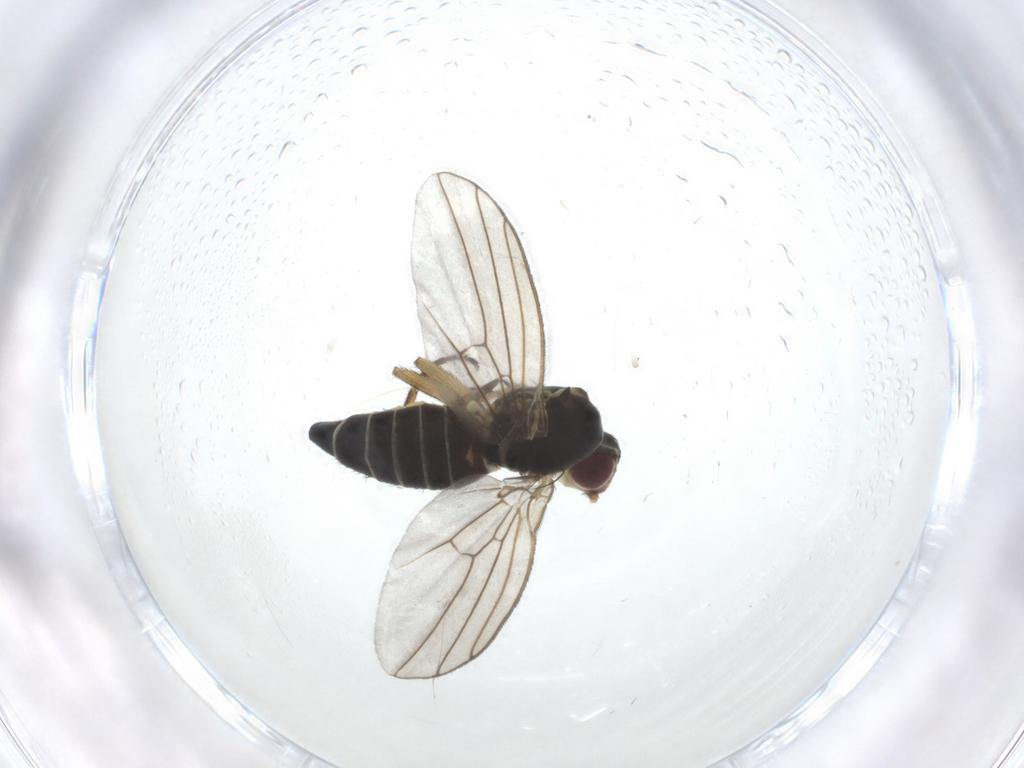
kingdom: Animalia
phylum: Arthropoda
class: Insecta
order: Diptera
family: Agromyzidae
